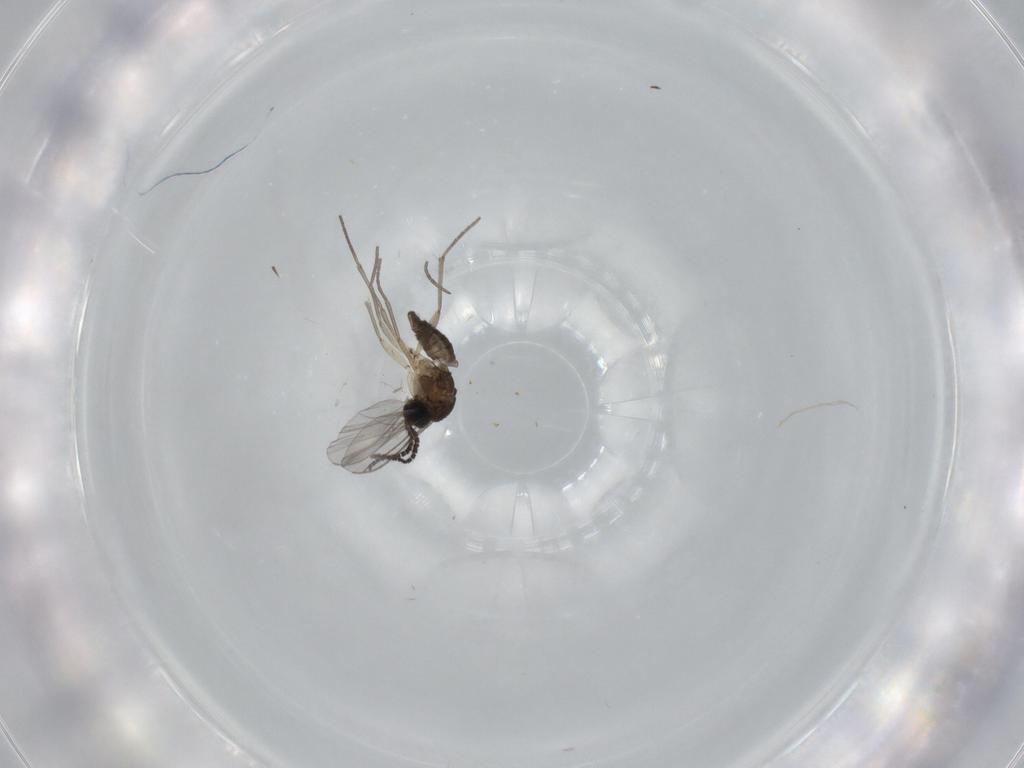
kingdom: Animalia
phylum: Arthropoda
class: Insecta
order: Diptera
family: Sciaridae
